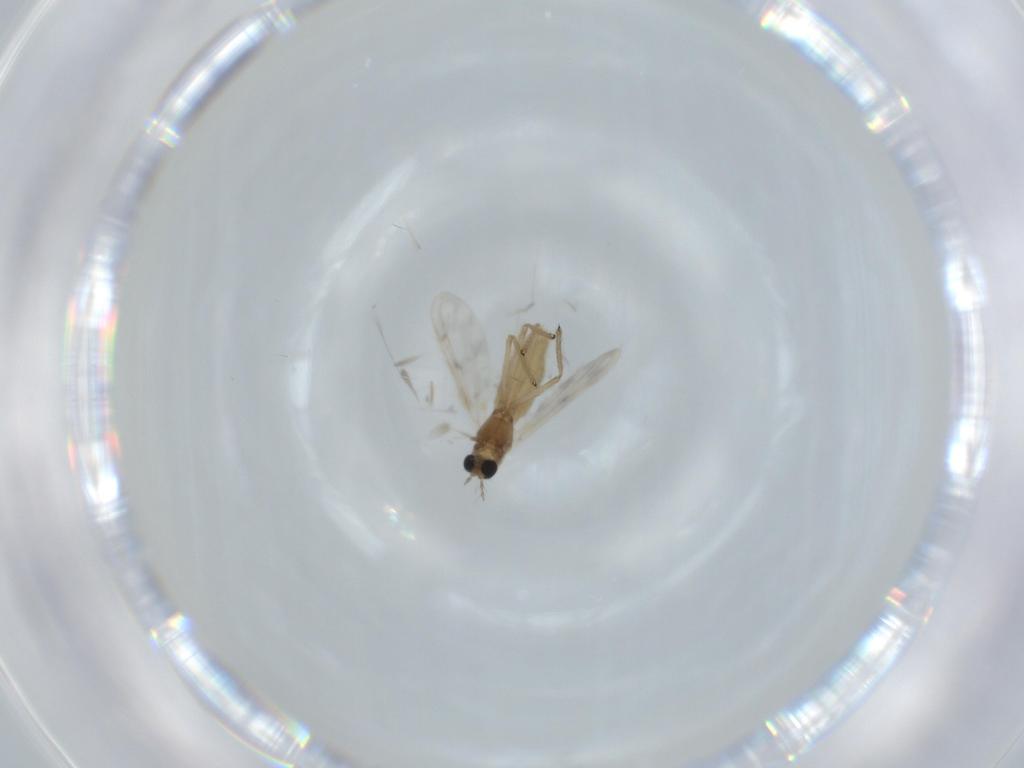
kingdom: Animalia
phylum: Arthropoda
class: Insecta
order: Diptera
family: Chironomidae
